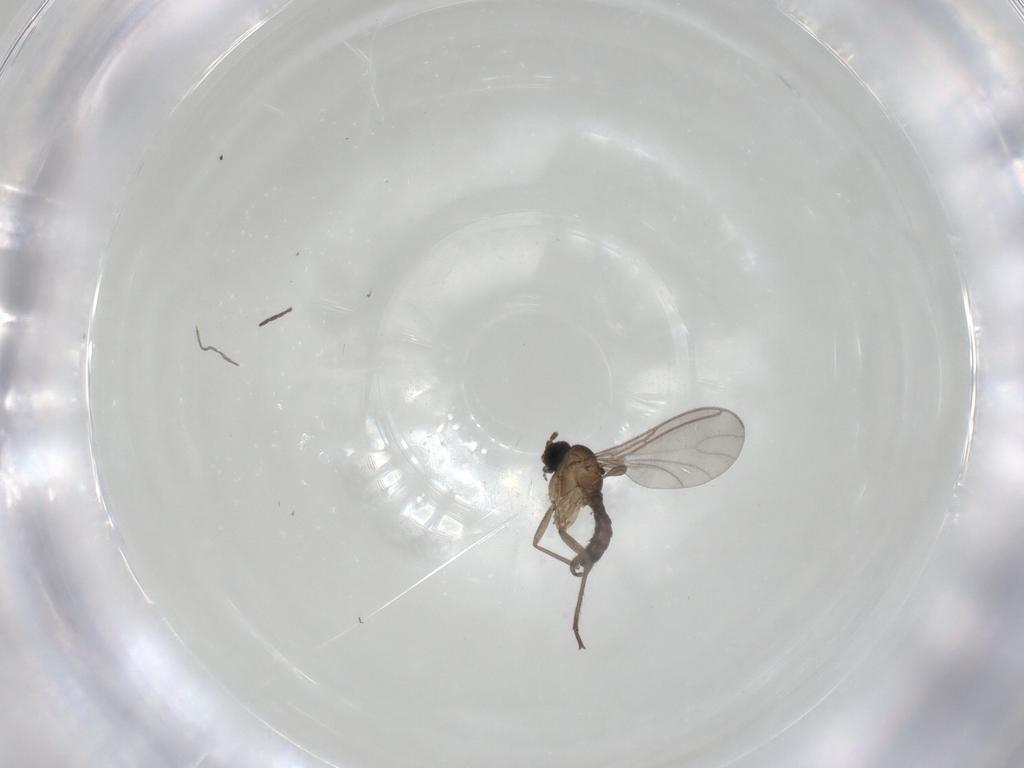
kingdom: Animalia
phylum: Arthropoda
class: Insecta
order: Diptera
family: Sciaridae
